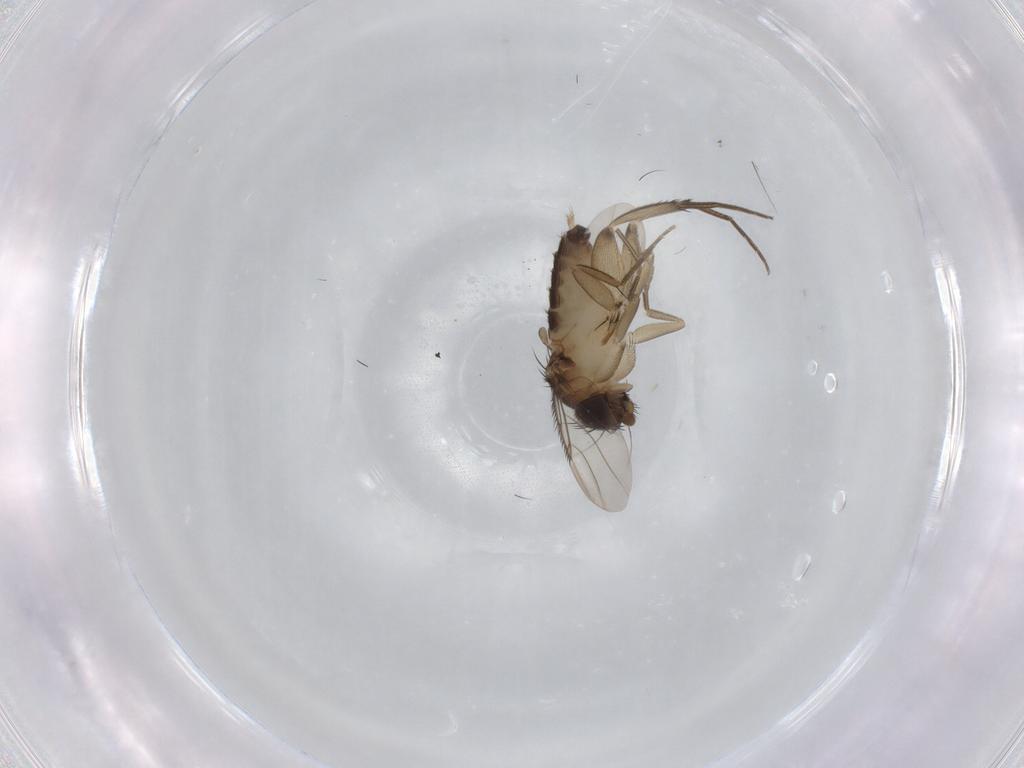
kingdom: Animalia
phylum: Arthropoda
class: Insecta
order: Diptera
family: Phoridae
